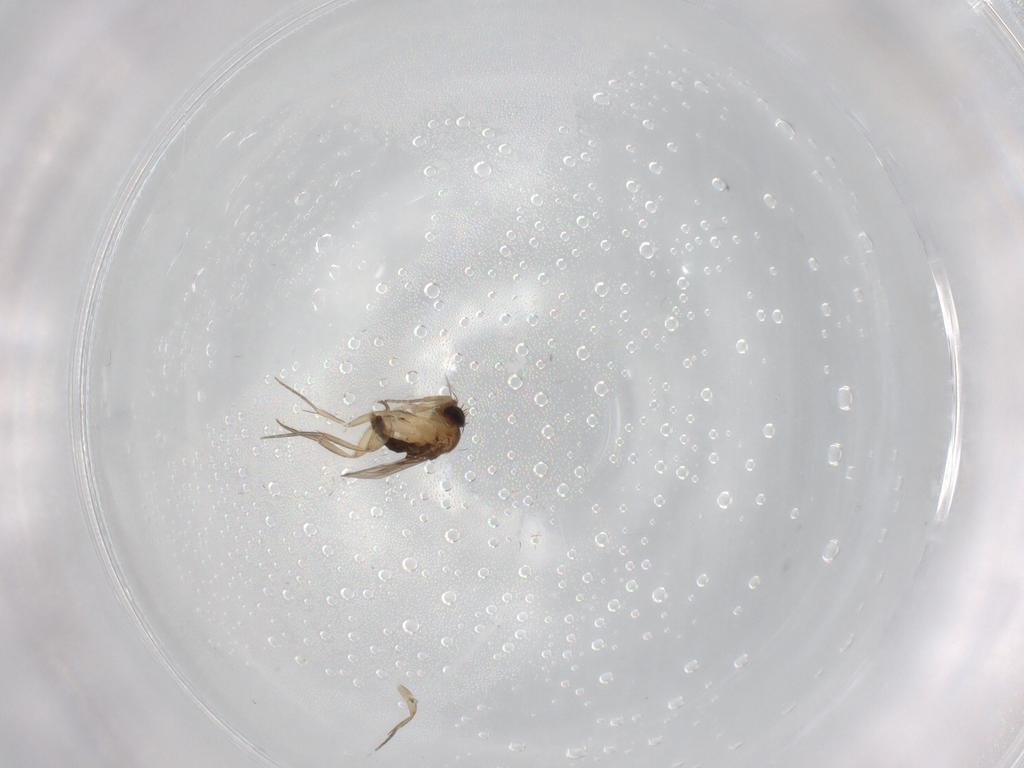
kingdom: Animalia
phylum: Arthropoda
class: Insecta
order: Diptera
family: Phoridae
